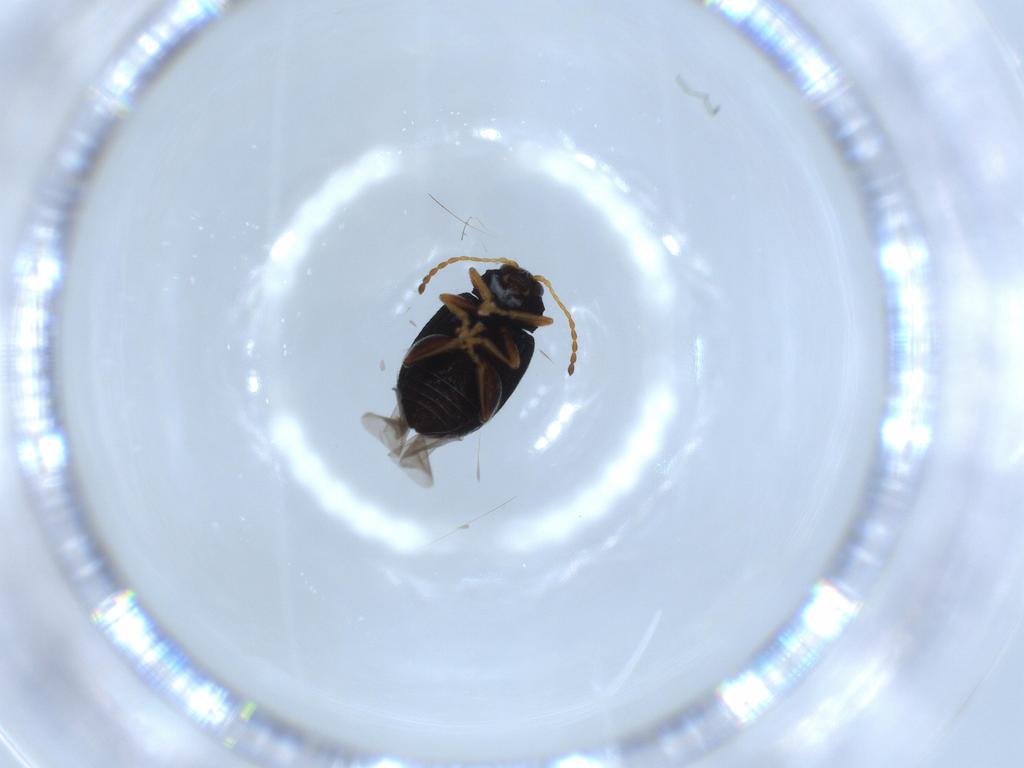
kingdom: Animalia
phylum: Arthropoda
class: Insecta
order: Coleoptera
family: Chrysomelidae
